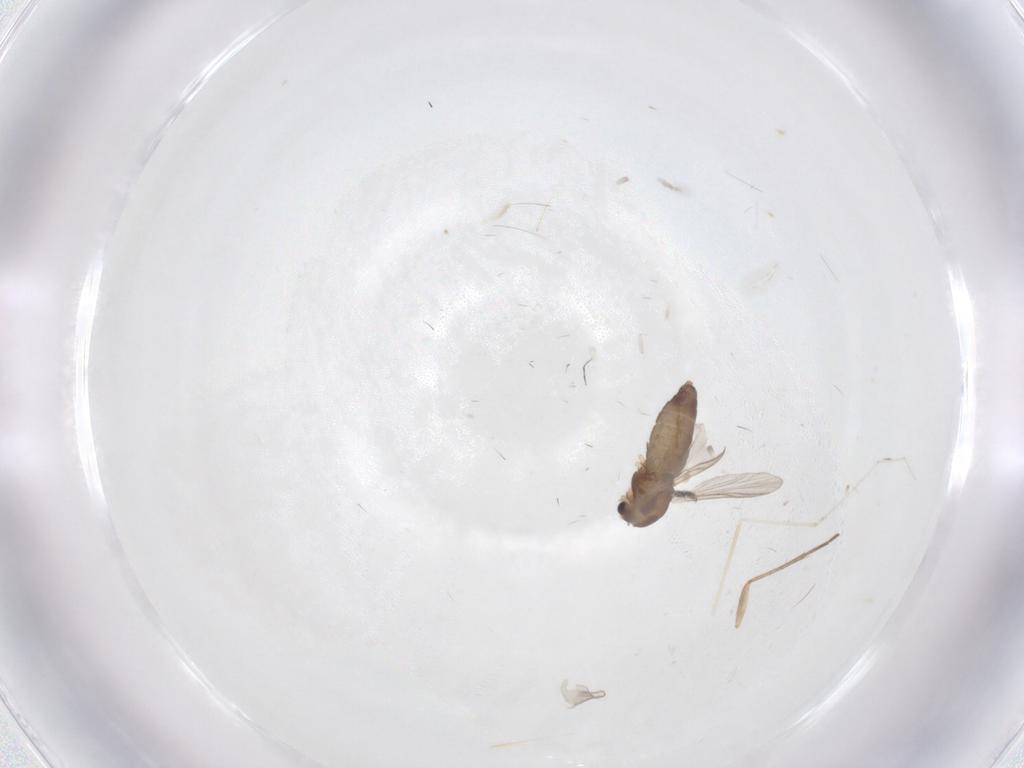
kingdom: Animalia
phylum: Arthropoda
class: Insecta
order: Diptera
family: Chironomidae
